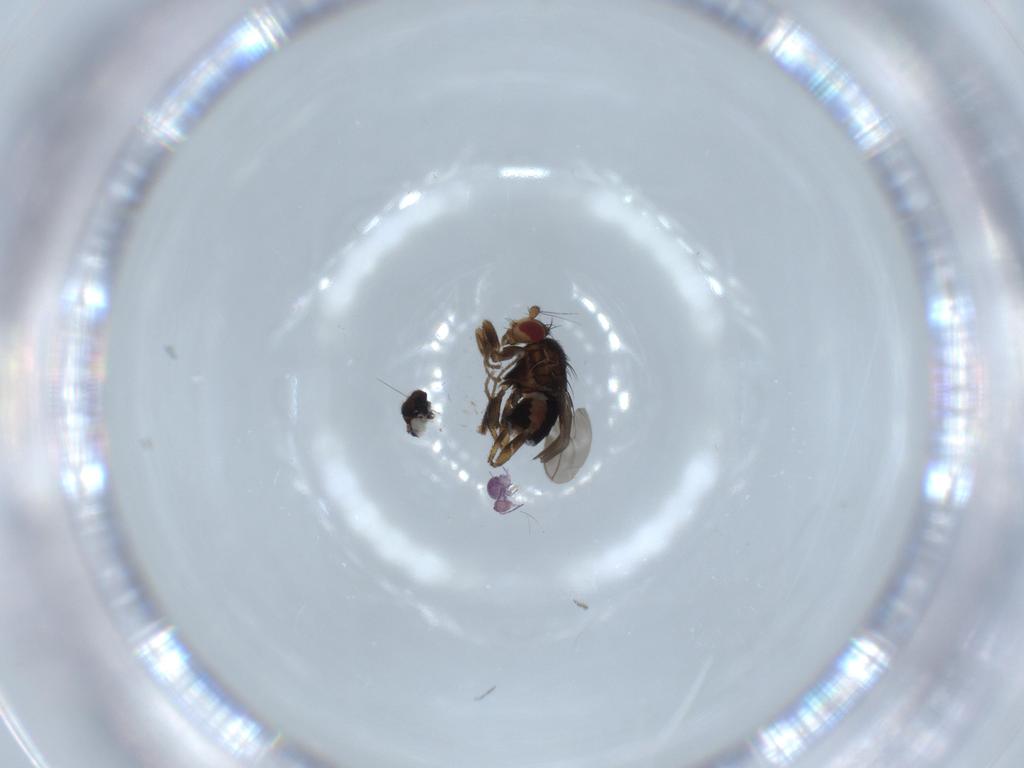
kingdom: Animalia
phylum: Arthropoda
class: Insecta
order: Diptera
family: Sphaeroceridae
